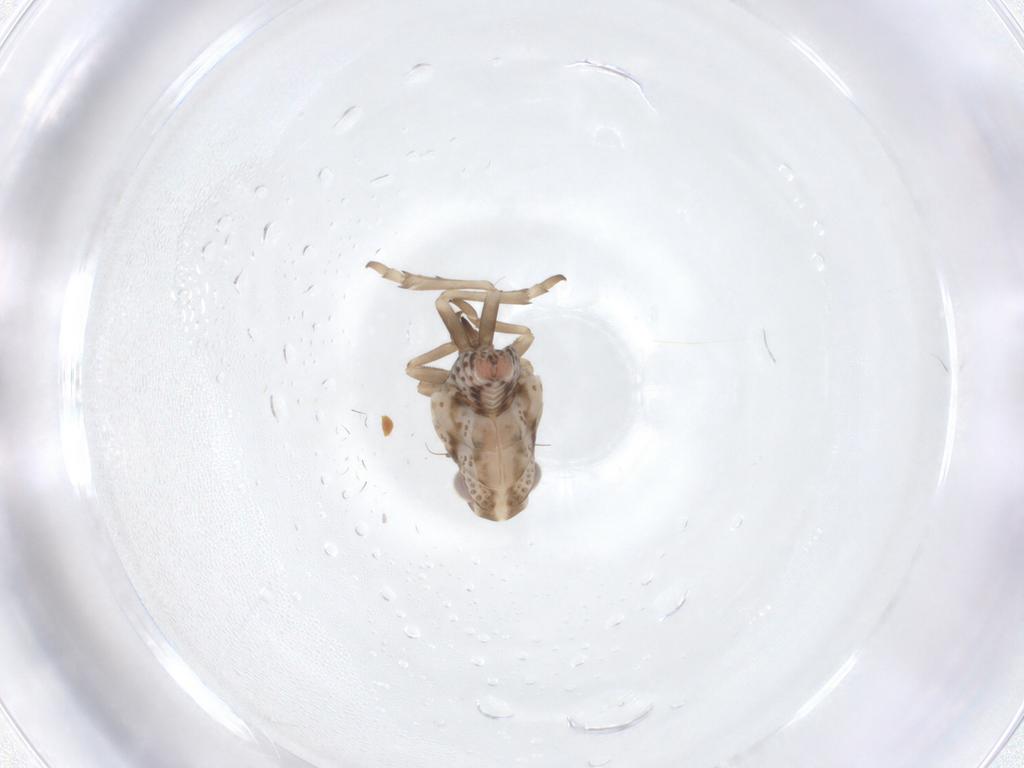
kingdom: Animalia
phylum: Arthropoda
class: Insecta
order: Hemiptera
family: Fulgoroidea_incertae_sedis
